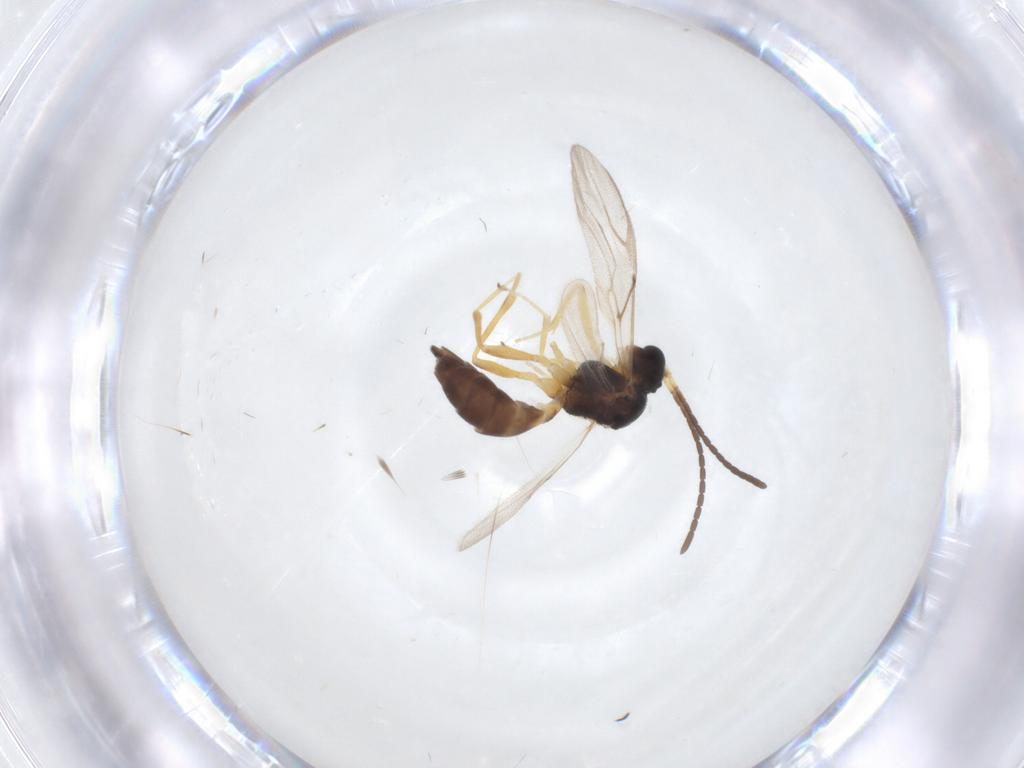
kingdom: Animalia
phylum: Arthropoda
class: Insecta
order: Hymenoptera
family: Braconidae
